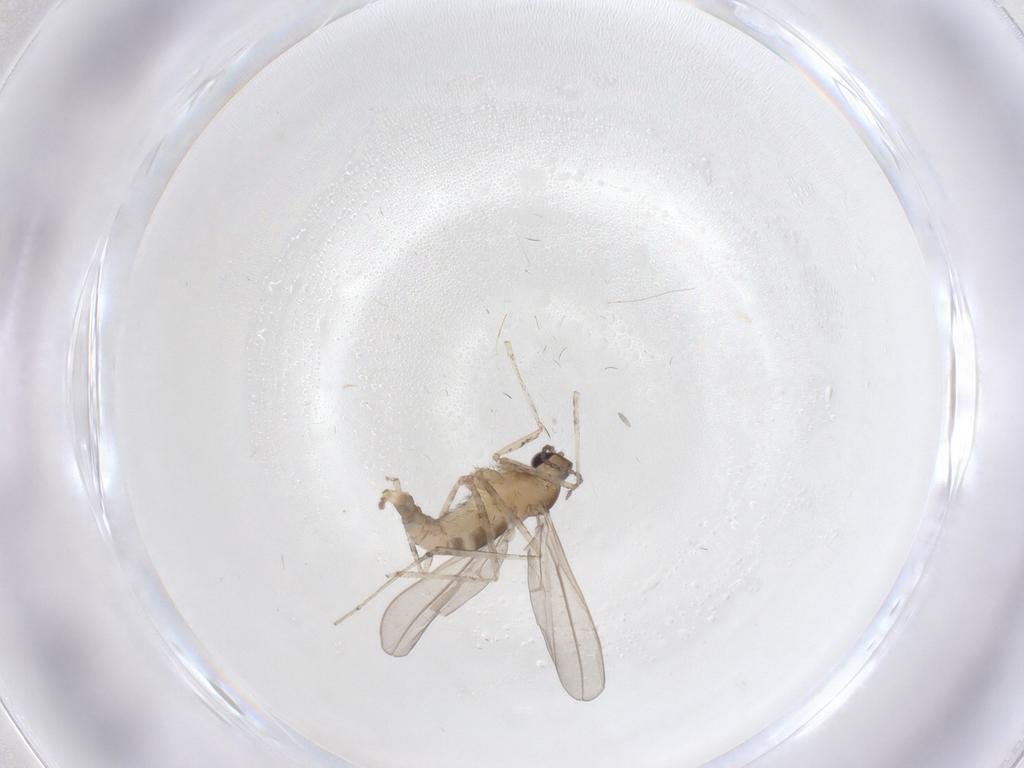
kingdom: Animalia
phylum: Arthropoda
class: Insecta
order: Diptera
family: Cecidomyiidae
